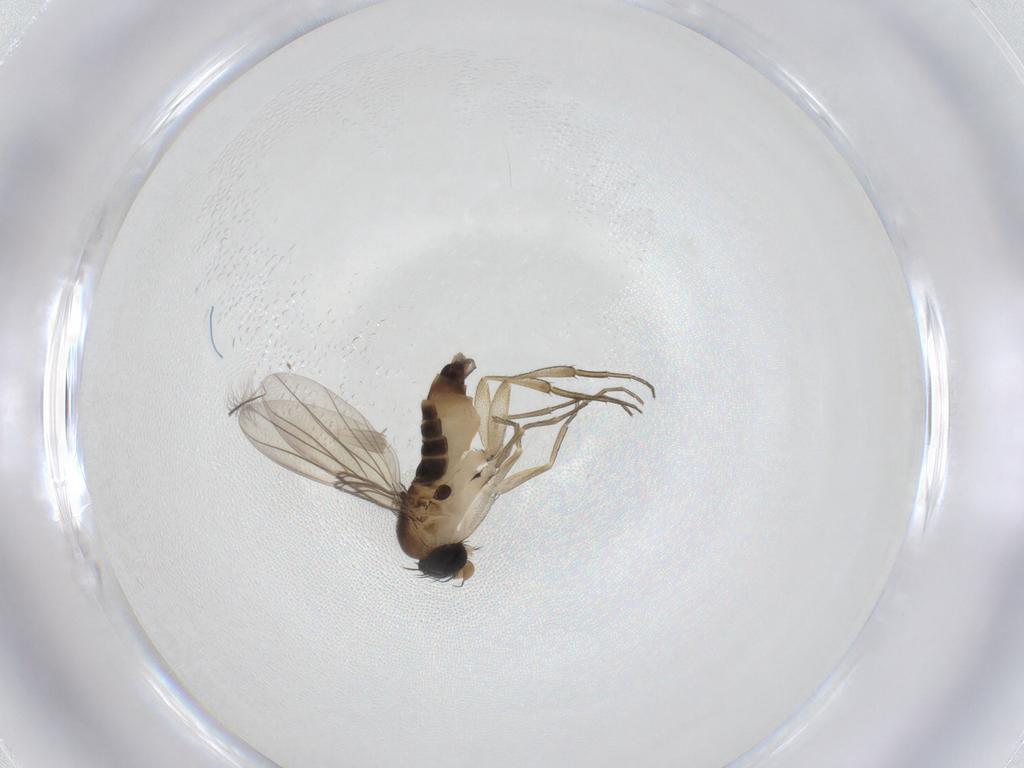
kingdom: Animalia
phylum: Arthropoda
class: Insecta
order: Diptera
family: Phoridae
